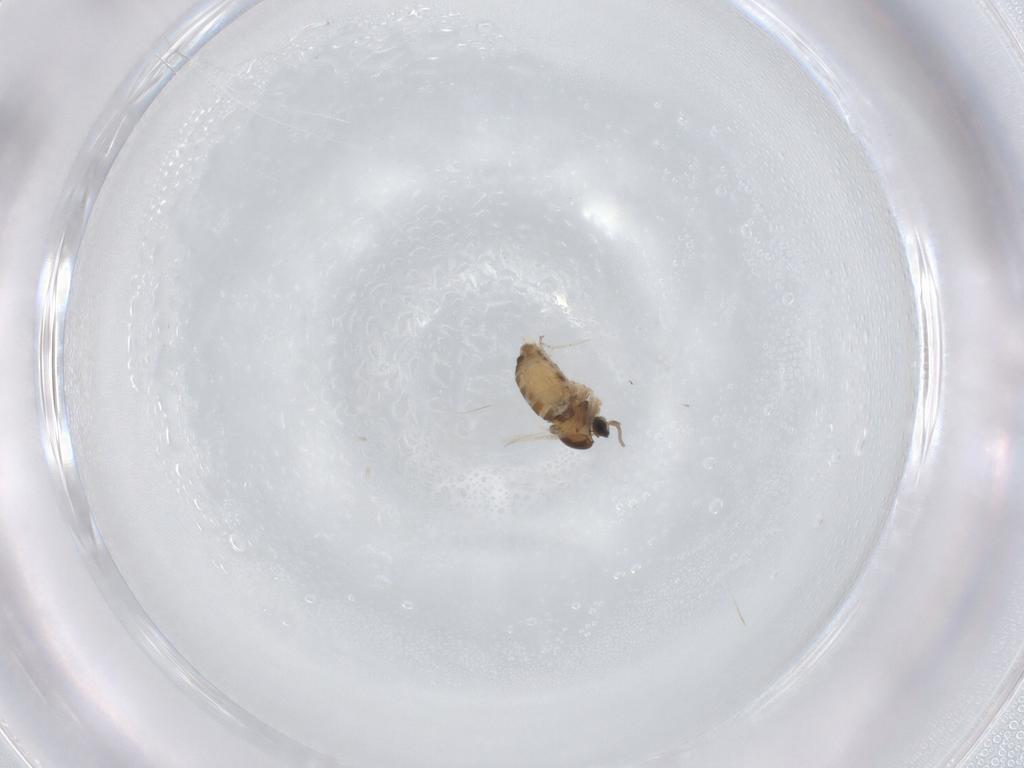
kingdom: Animalia
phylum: Arthropoda
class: Insecta
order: Diptera
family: Cecidomyiidae
